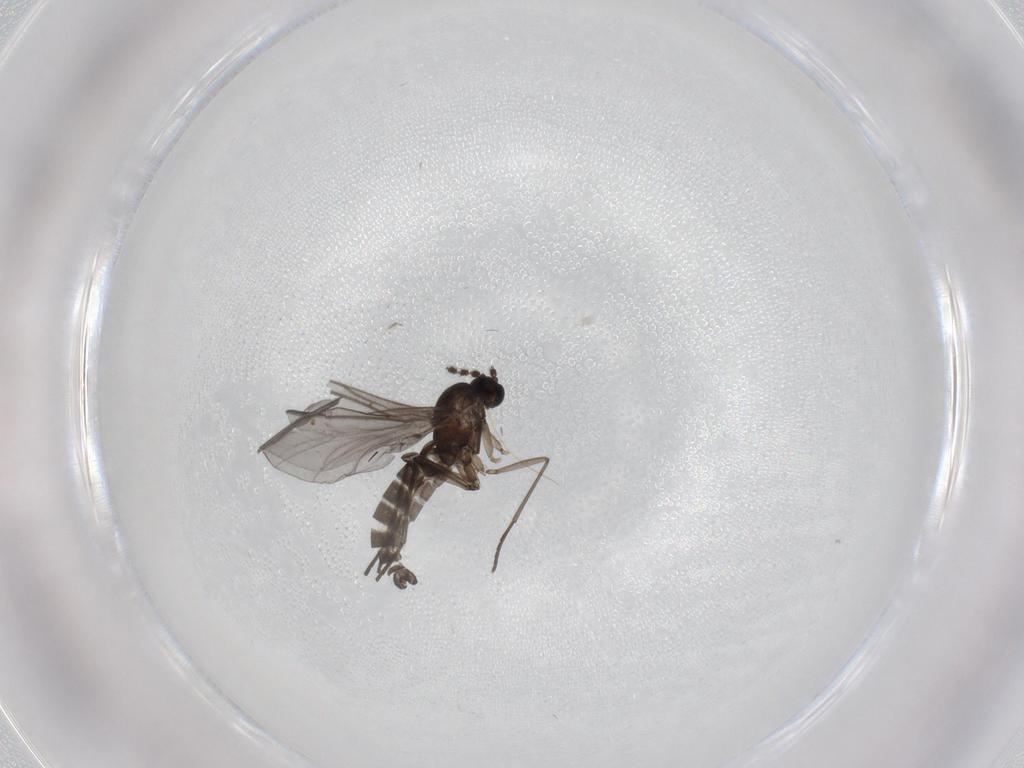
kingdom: Animalia
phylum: Arthropoda
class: Insecta
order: Diptera
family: Cecidomyiidae
